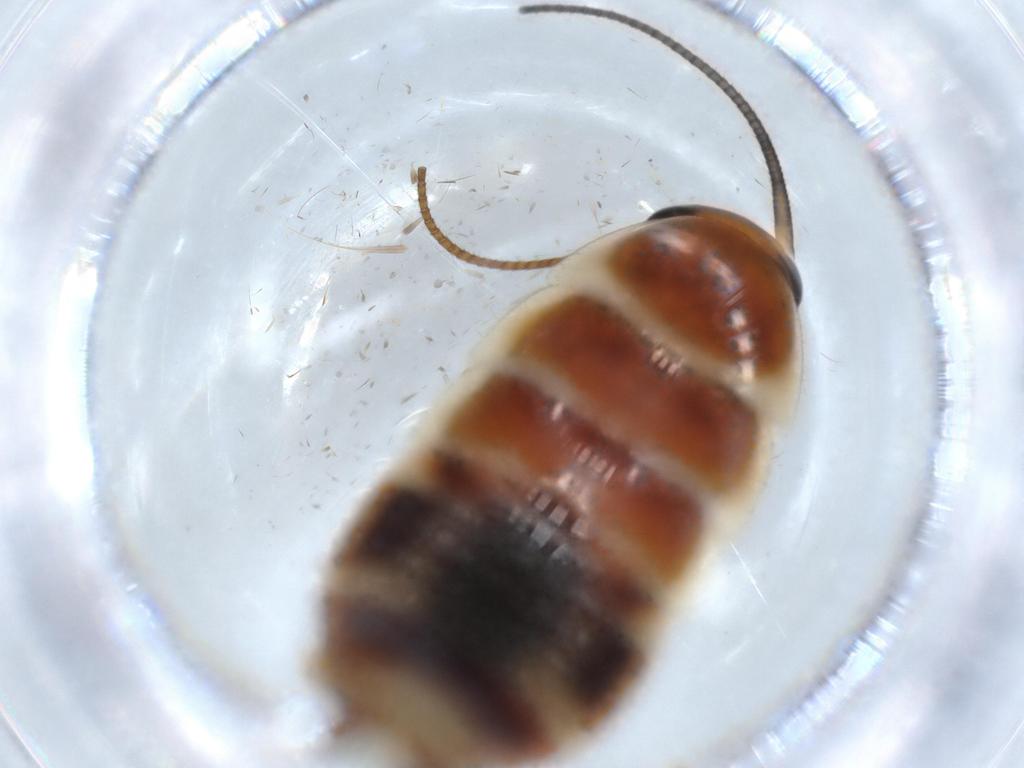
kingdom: Animalia
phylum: Arthropoda
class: Insecta
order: Blattodea
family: Ectobiidae
